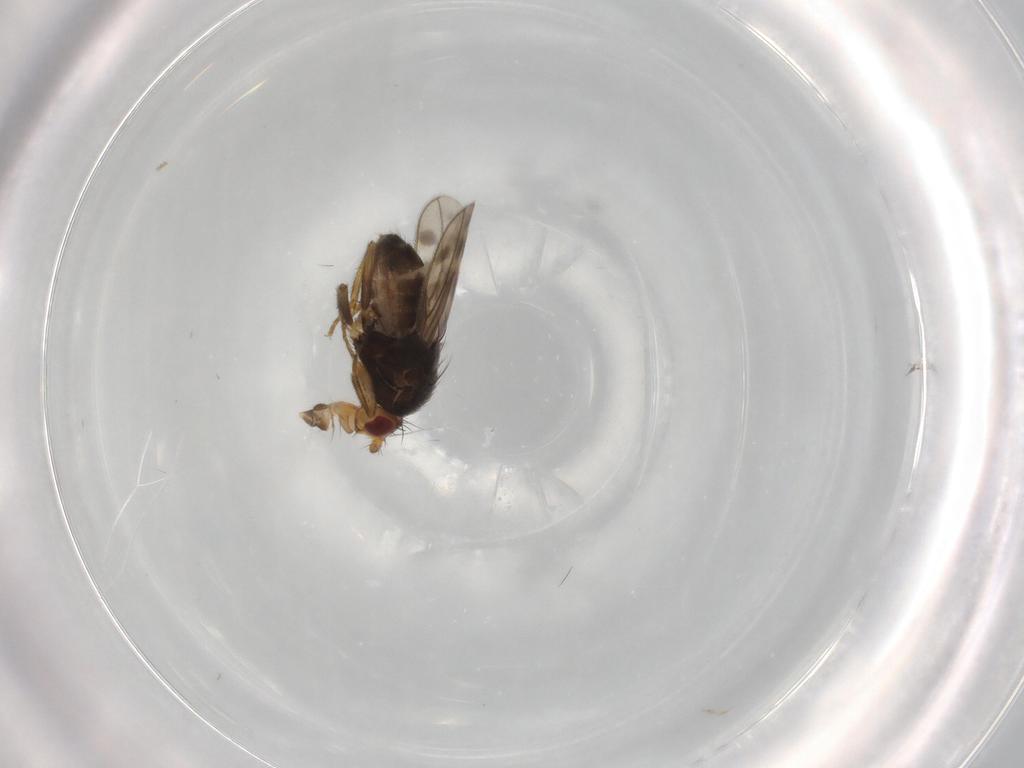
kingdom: Animalia
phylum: Arthropoda
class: Insecta
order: Diptera
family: Sphaeroceridae
